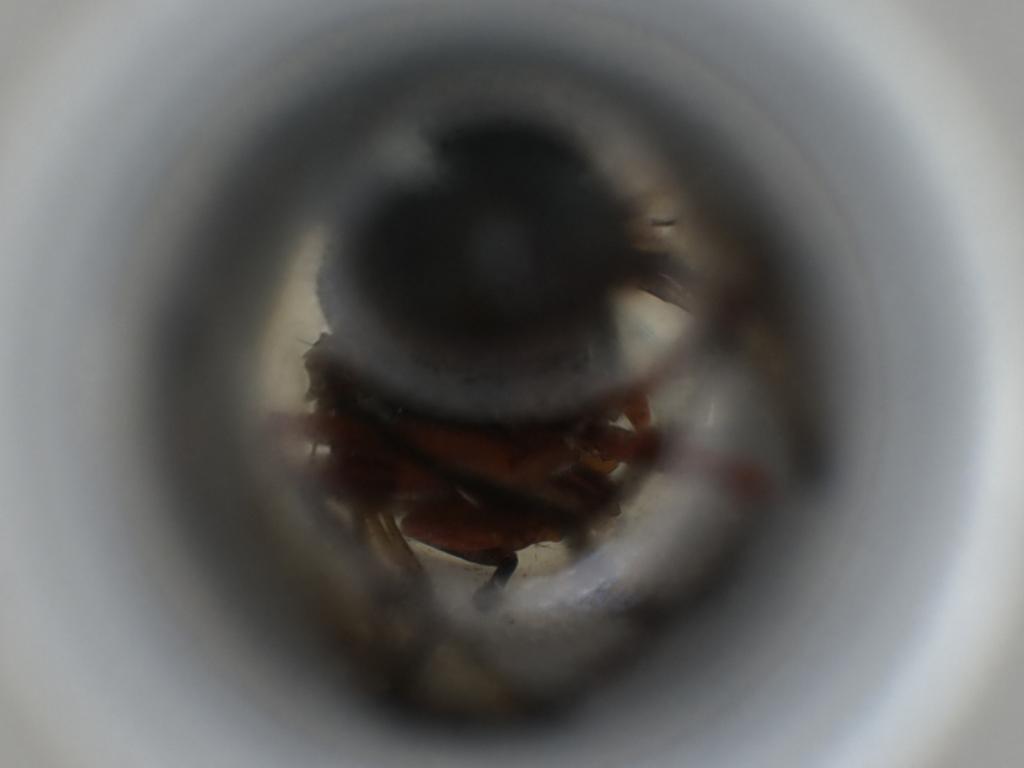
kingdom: Animalia
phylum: Arthropoda
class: Insecta
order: Diptera
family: Platystomatidae
